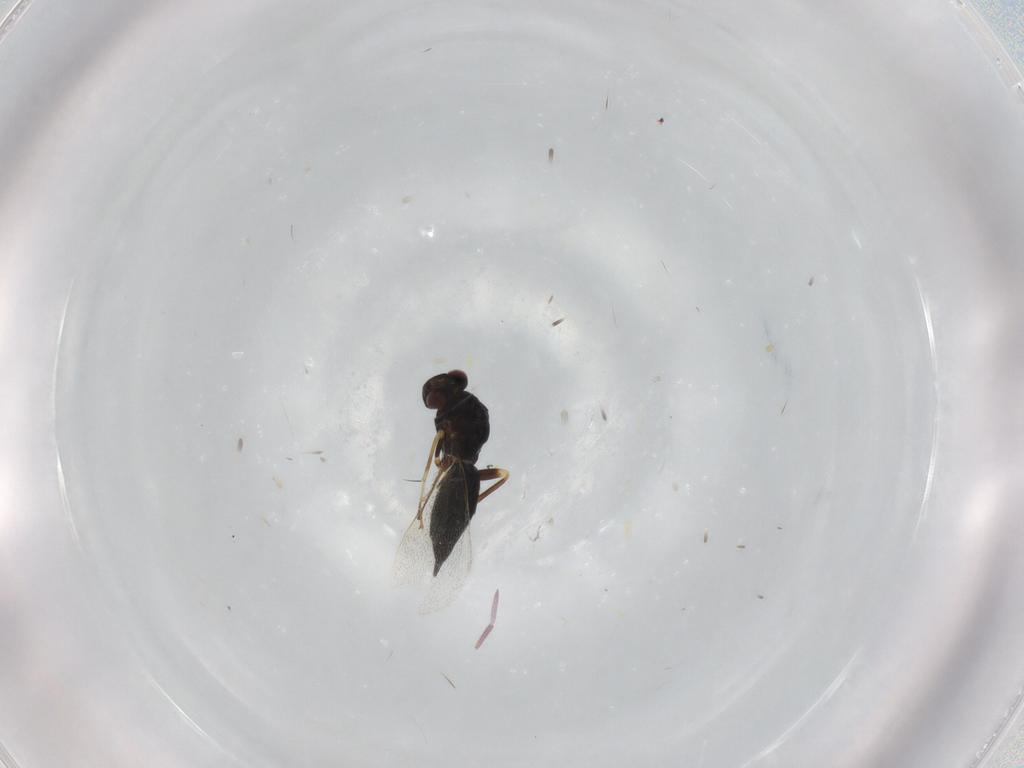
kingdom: Animalia
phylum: Arthropoda
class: Insecta
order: Hymenoptera
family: Eulophidae
